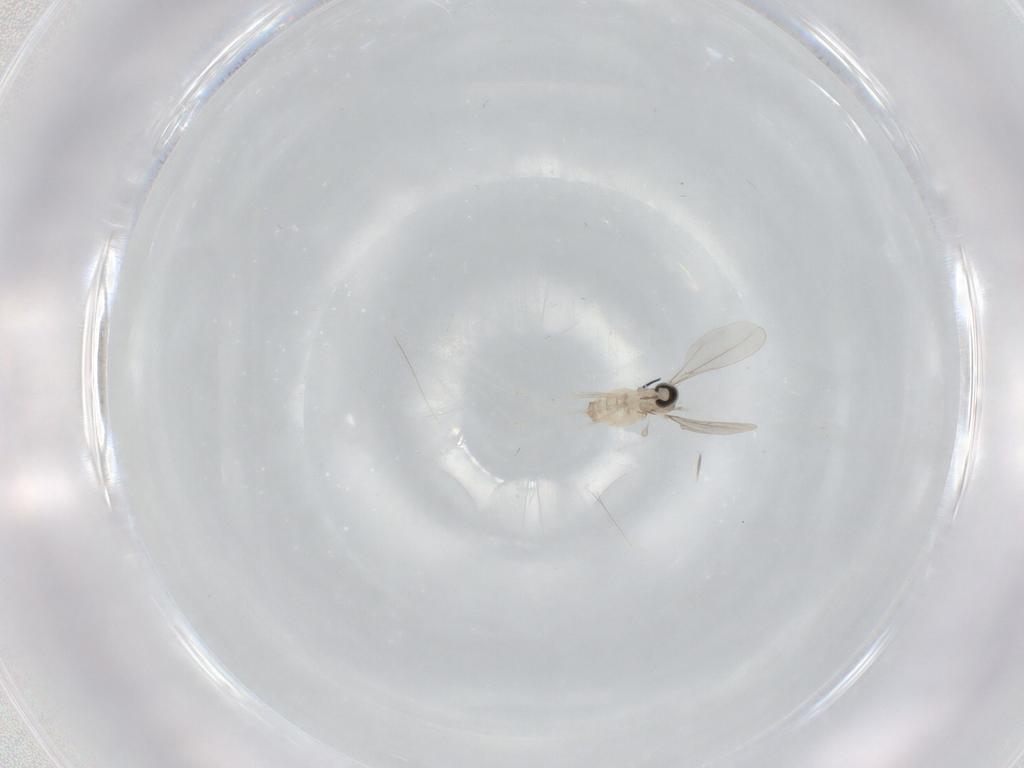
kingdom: Animalia
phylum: Arthropoda
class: Insecta
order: Diptera
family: Cecidomyiidae
